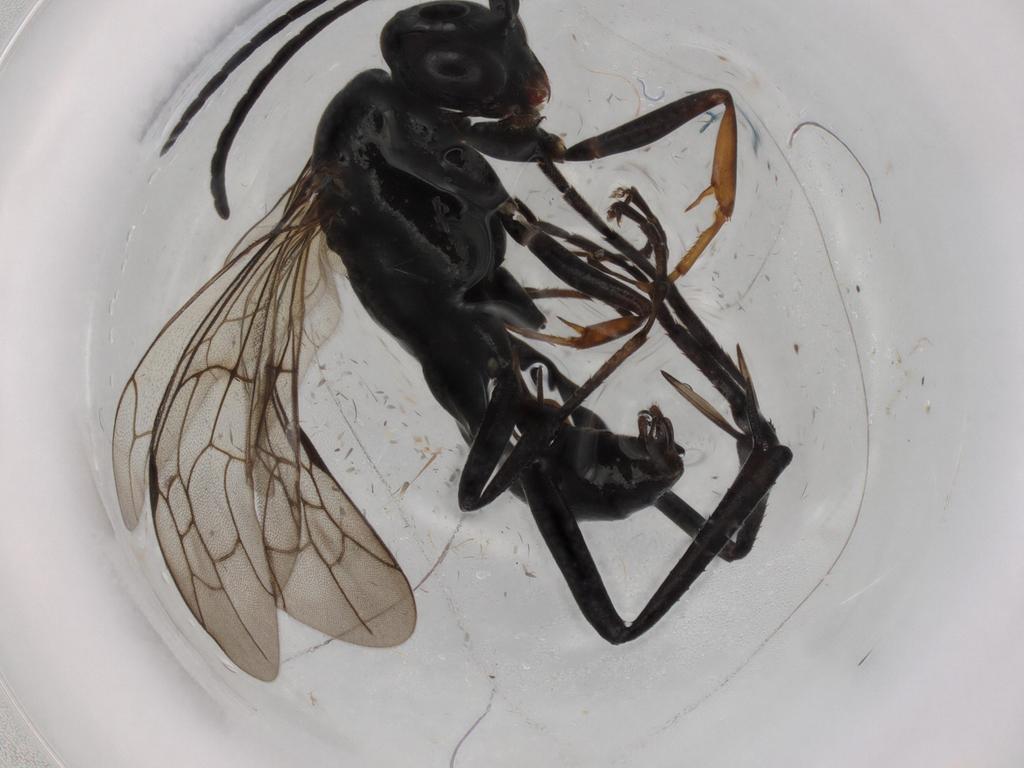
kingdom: Animalia
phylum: Arthropoda
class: Insecta
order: Hymenoptera
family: Pompilidae
